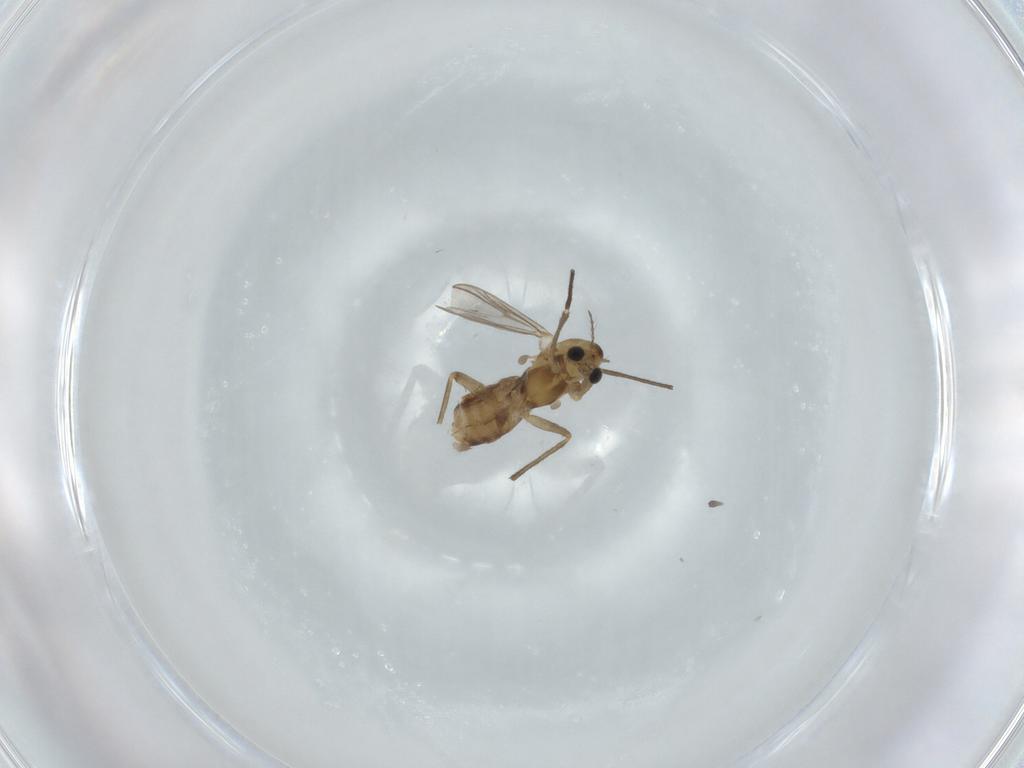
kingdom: Animalia
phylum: Arthropoda
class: Insecta
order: Diptera
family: Chironomidae
